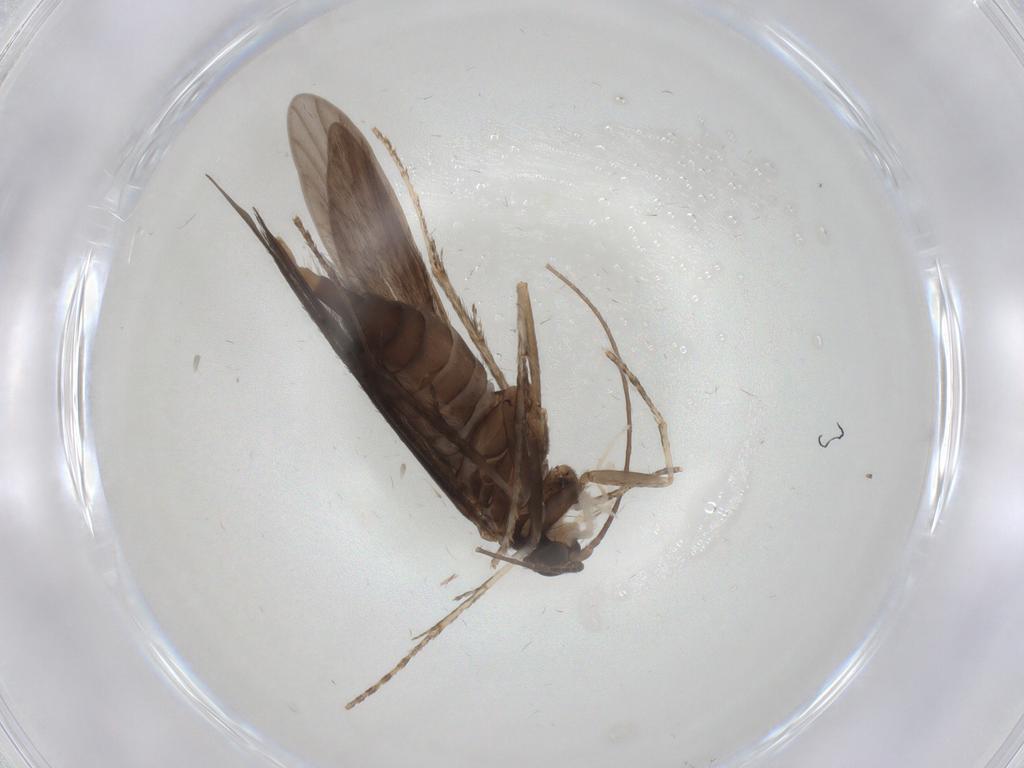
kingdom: Animalia
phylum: Arthropoda
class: Insecta
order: Trichoptera
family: Xiphocentronidae
